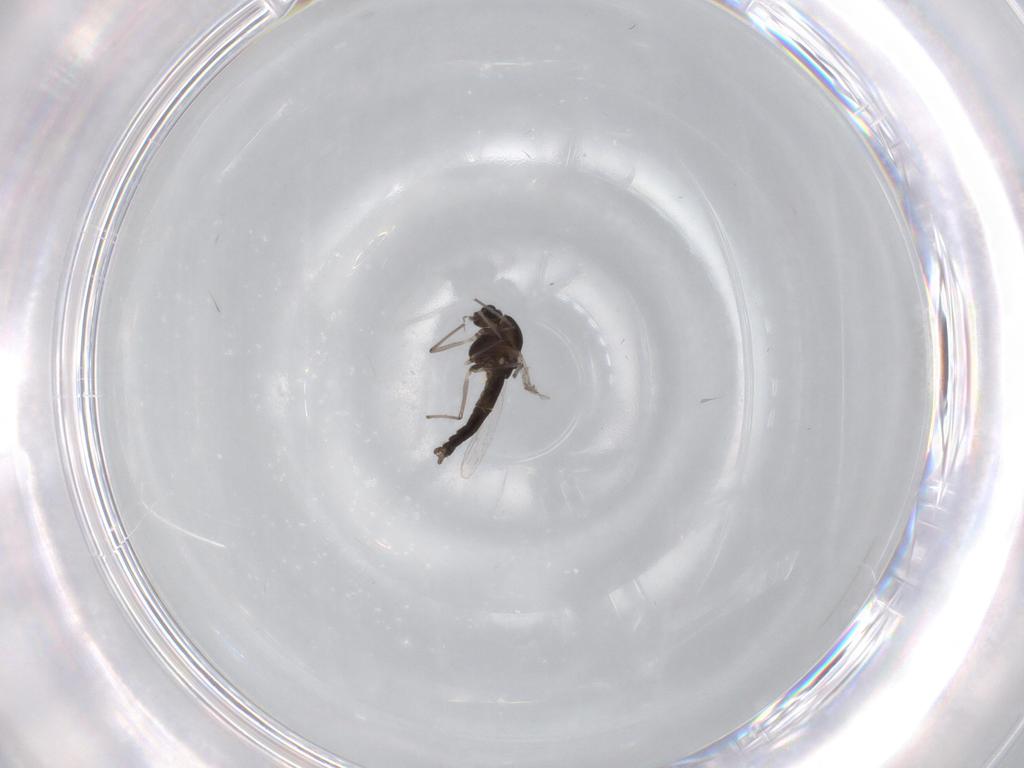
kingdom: Animalia
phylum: Arthropoda
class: Insecta
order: Diptera
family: Chironomidae
